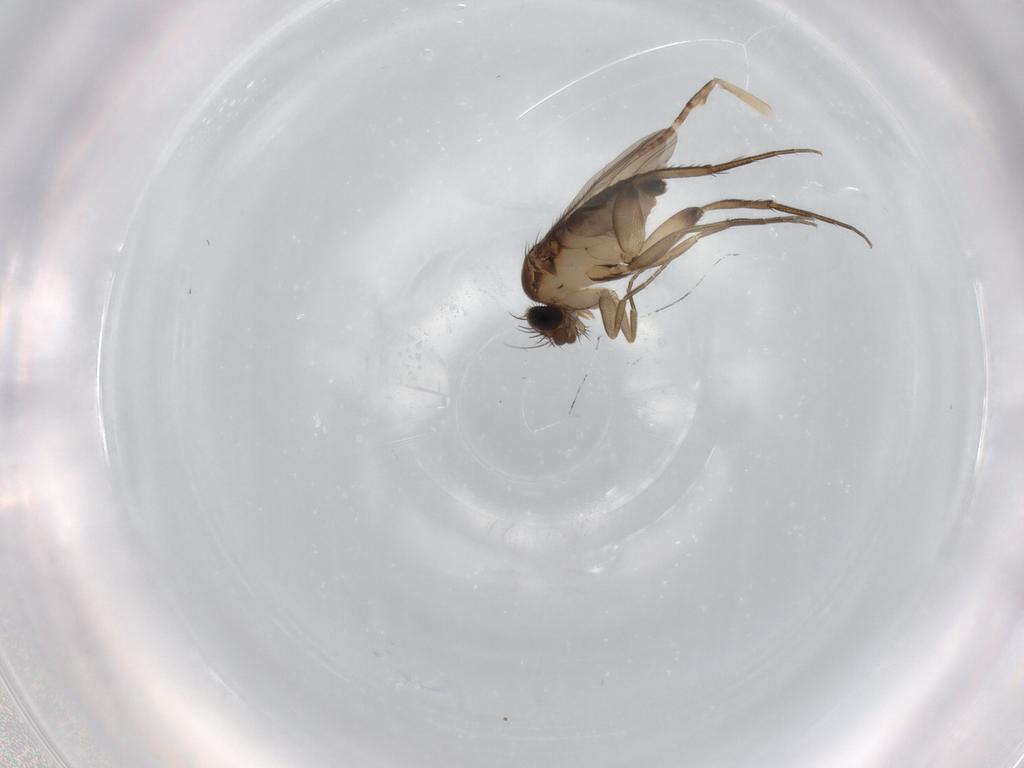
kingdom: Animalia
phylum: Arthropoda
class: Insecta
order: Diptera
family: Phoridae
